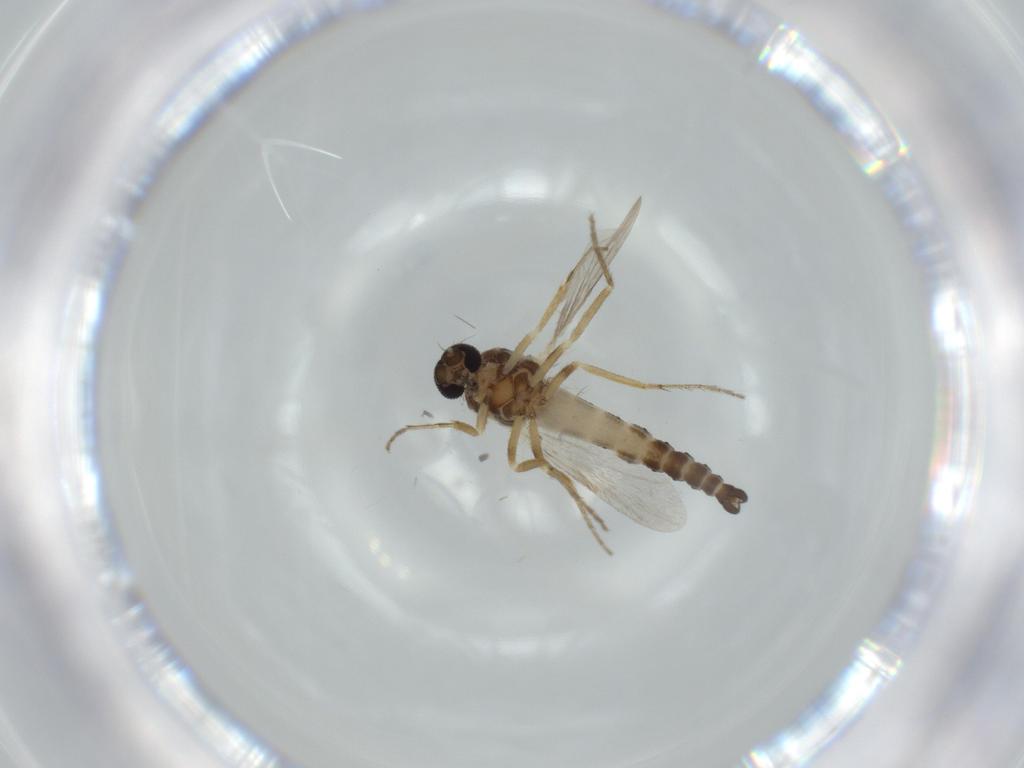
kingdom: Animalia
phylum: Arthropoda
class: Insecta
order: Diptera
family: Ceratopogonidae
